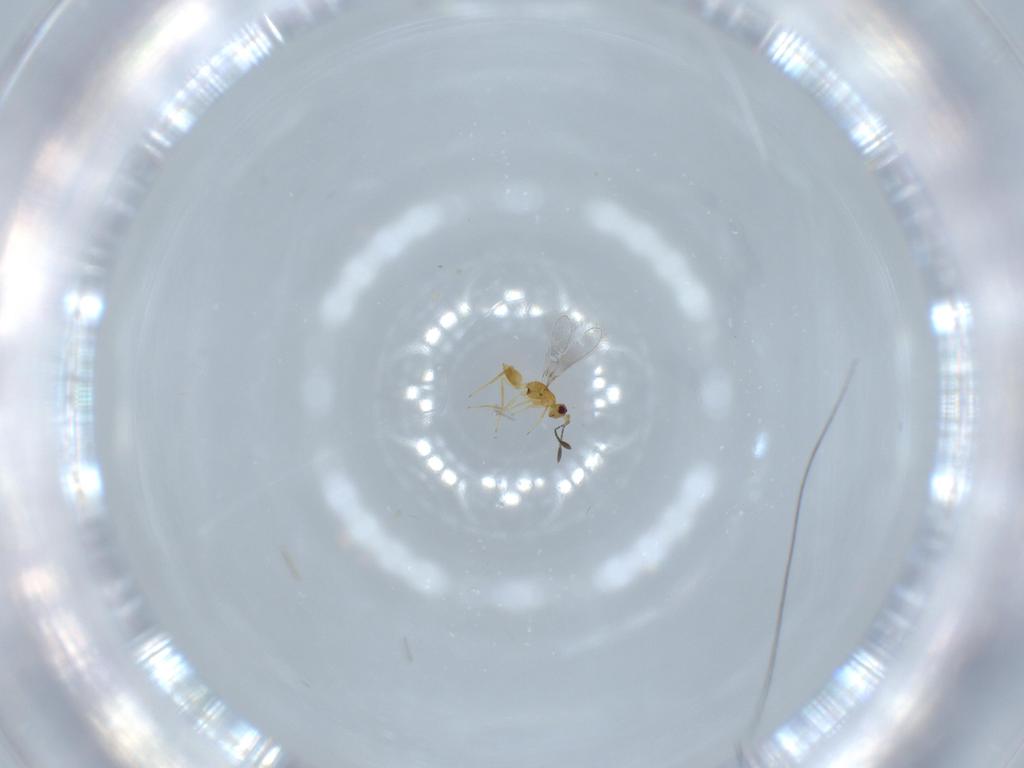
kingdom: Animalia
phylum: Arthropoda
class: Insecta
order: Hymenoptera
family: Mymaridae
